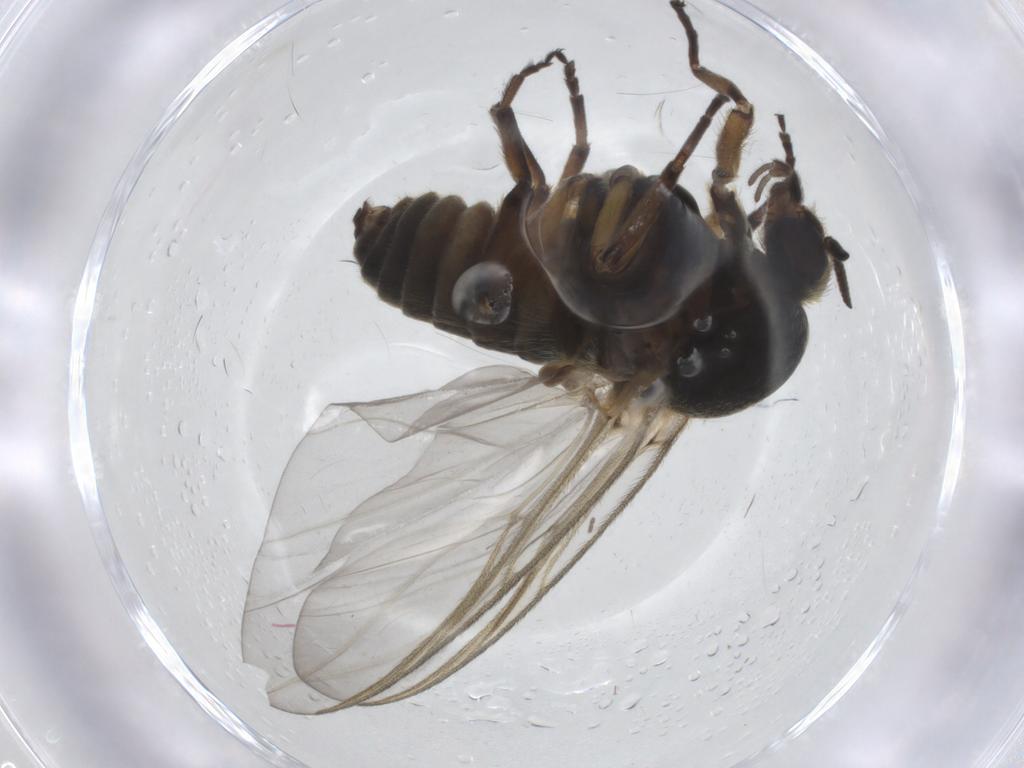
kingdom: Animalia
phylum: Arthropoda
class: Insecta
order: Diptera
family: Simuliidae
